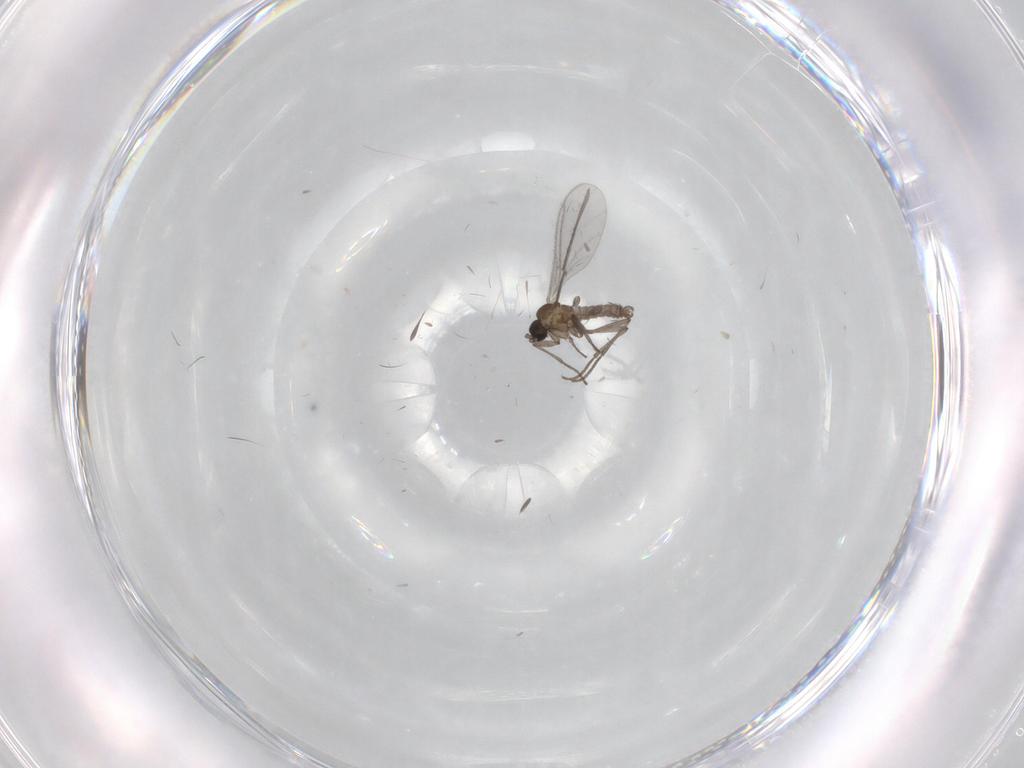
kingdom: Animalia
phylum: Arthropoda
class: Insecta
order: Diptera
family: Sciaridae
